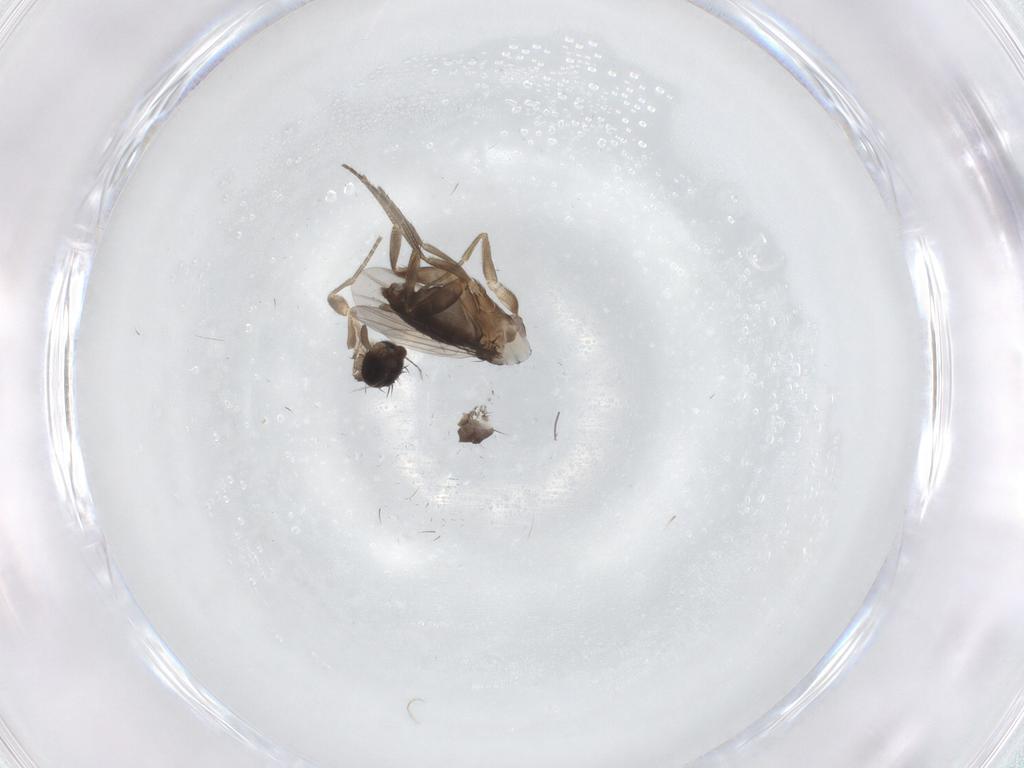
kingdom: Animalia
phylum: Arthropoda
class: Insecta
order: Diptera
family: Phoridae
